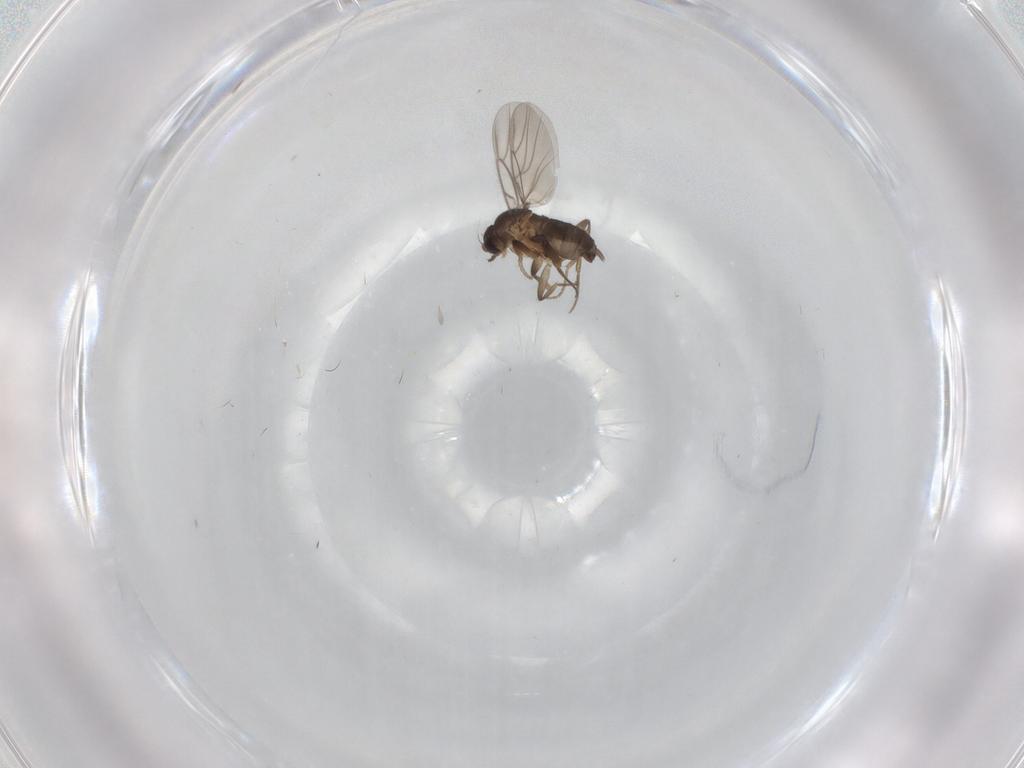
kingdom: Animalia
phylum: Arthropoda
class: Insecta
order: Diptera
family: Phoridae
